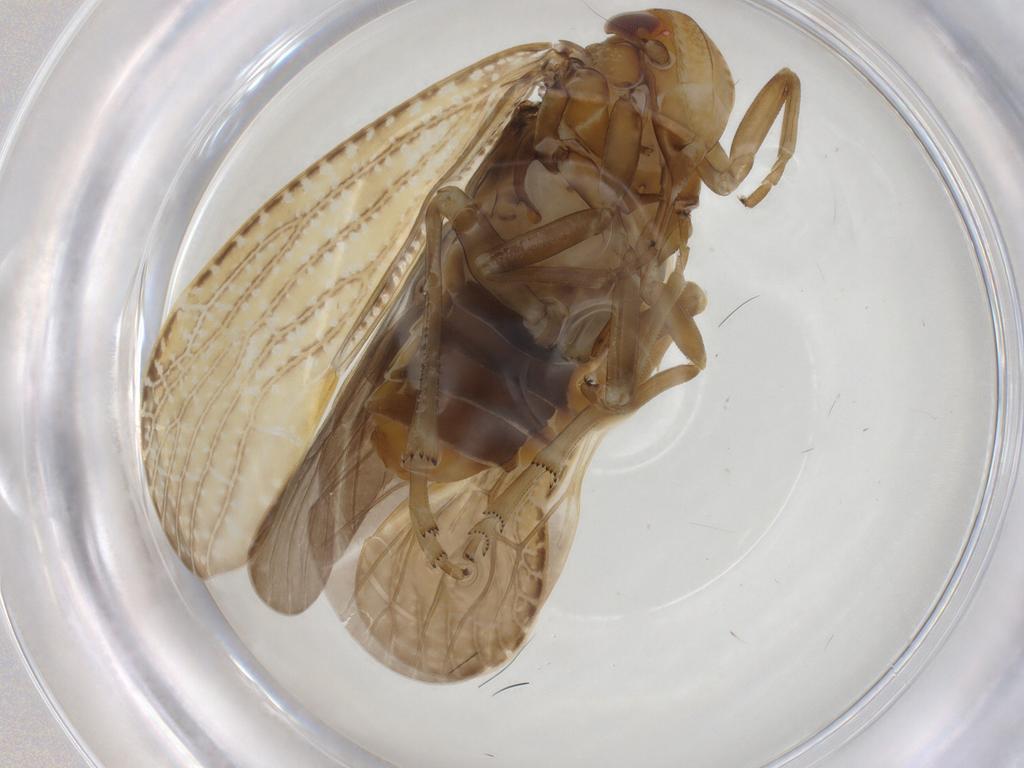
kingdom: Animalia
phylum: Arthropoda
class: Insecta
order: Hemiptera
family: Achilidae
